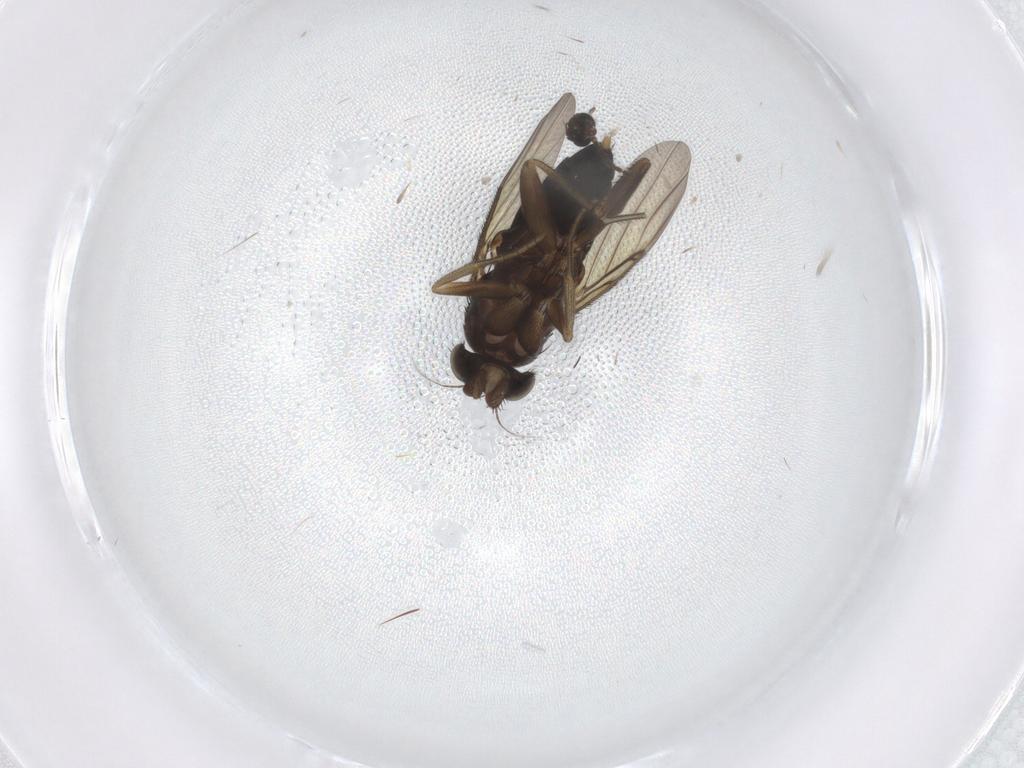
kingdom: Animalia
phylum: Arthropoda
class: Insecta
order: Diptera
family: Phoridae
